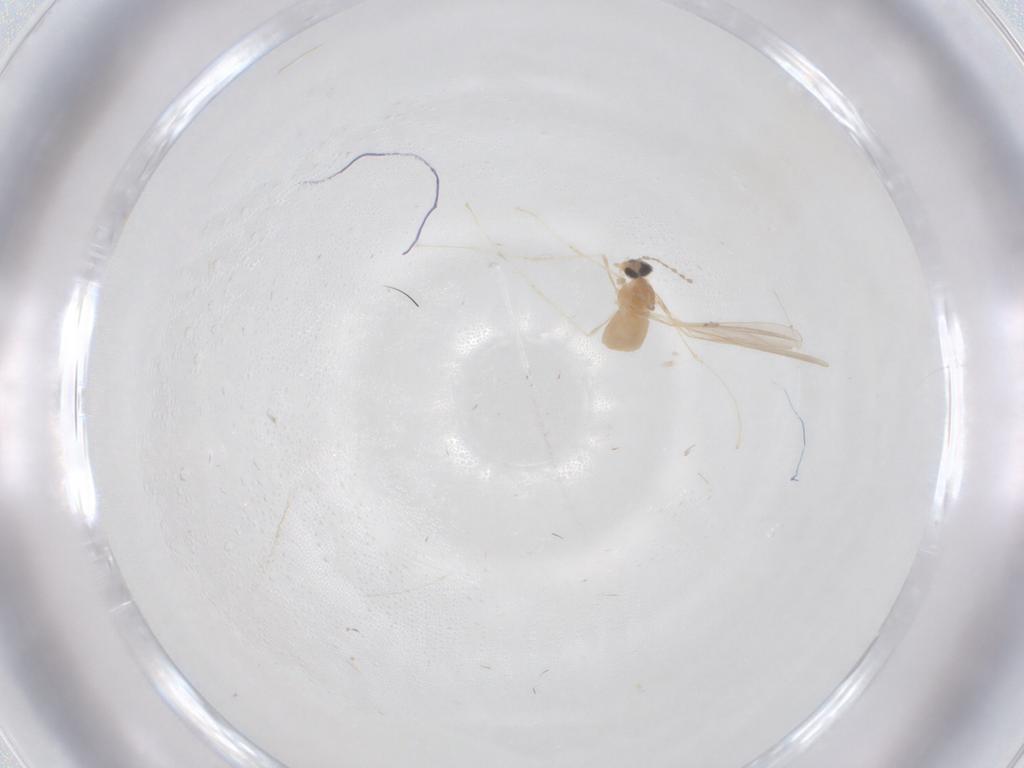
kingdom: Animalia
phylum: Arthropoda
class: Insecta
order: Diptera
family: Cecidomyiidae
